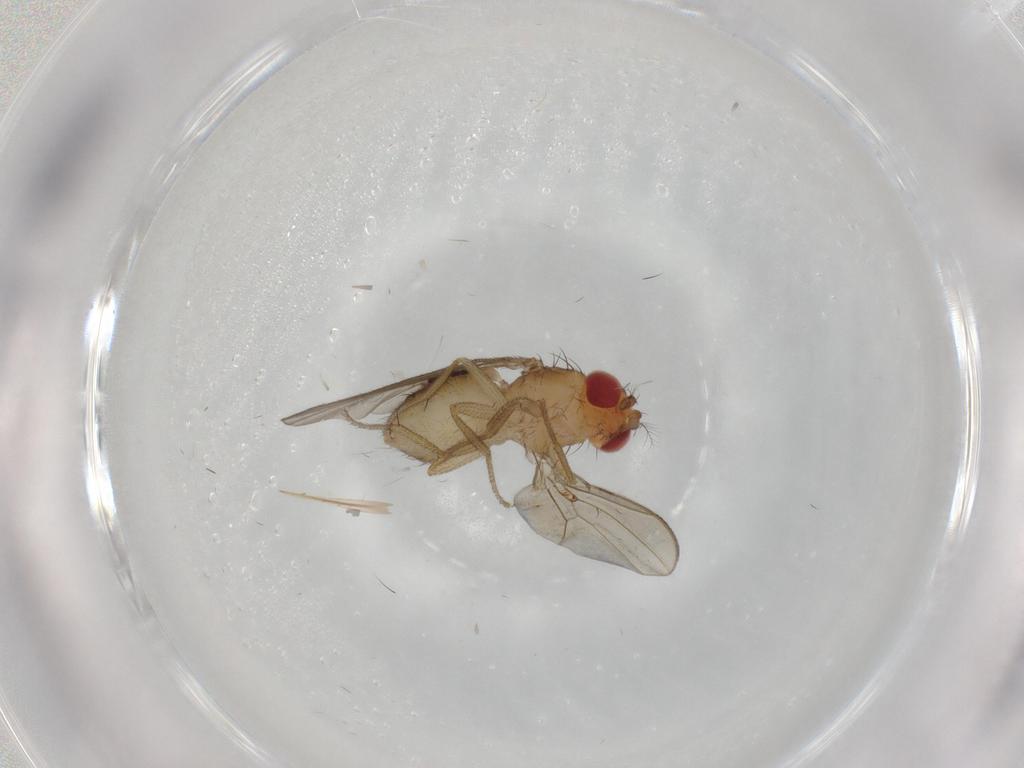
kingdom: Animalia
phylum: Arthropoda
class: Insecta
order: Diptera
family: Drosophilidae
